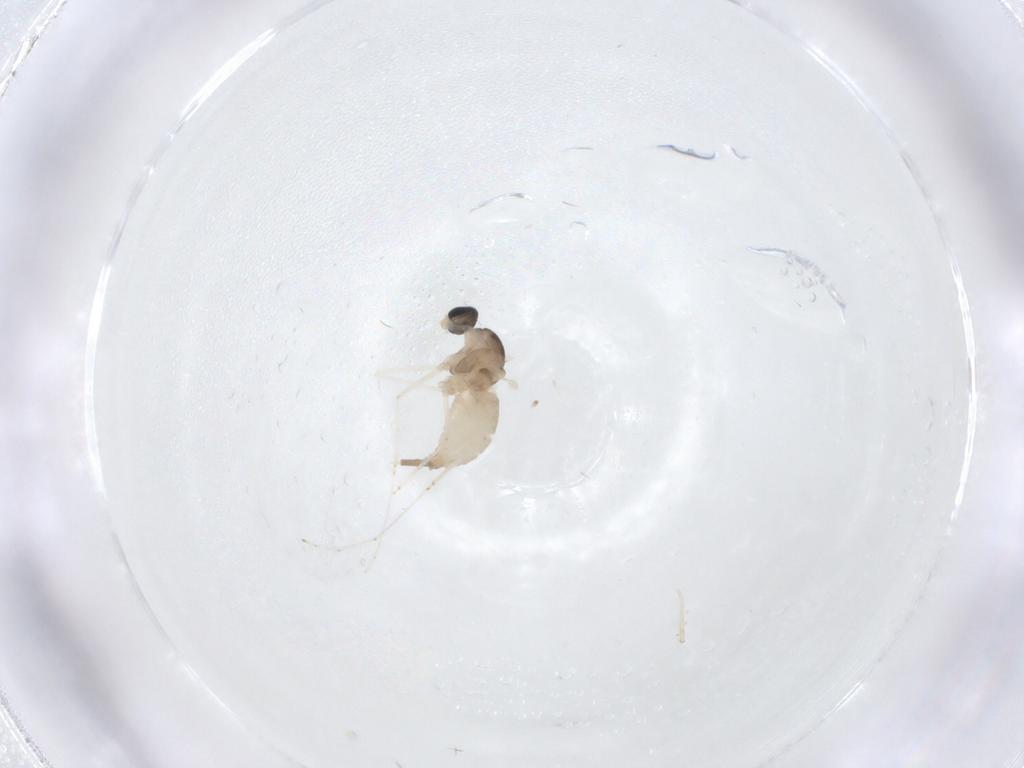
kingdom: Animalia
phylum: Arthropoda
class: Insecta
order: Diptera
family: Cecidomyiidae
